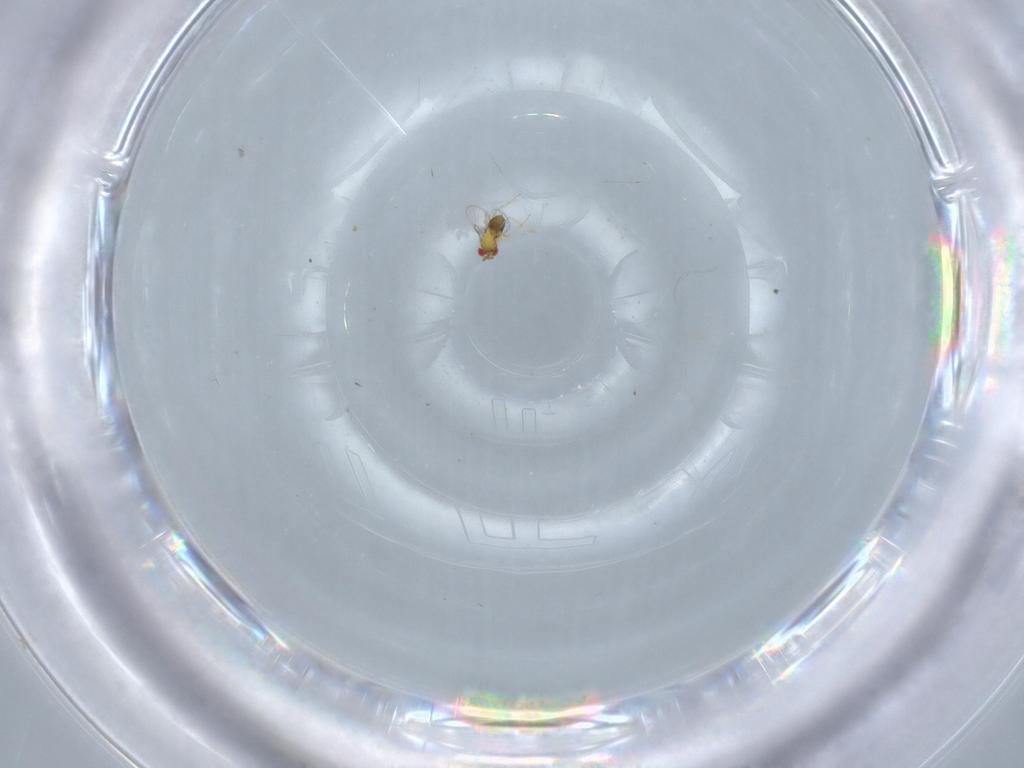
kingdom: Animalia
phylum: Arthropoda
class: Insecta
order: Hymenoptera
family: Trichogrammatidae
